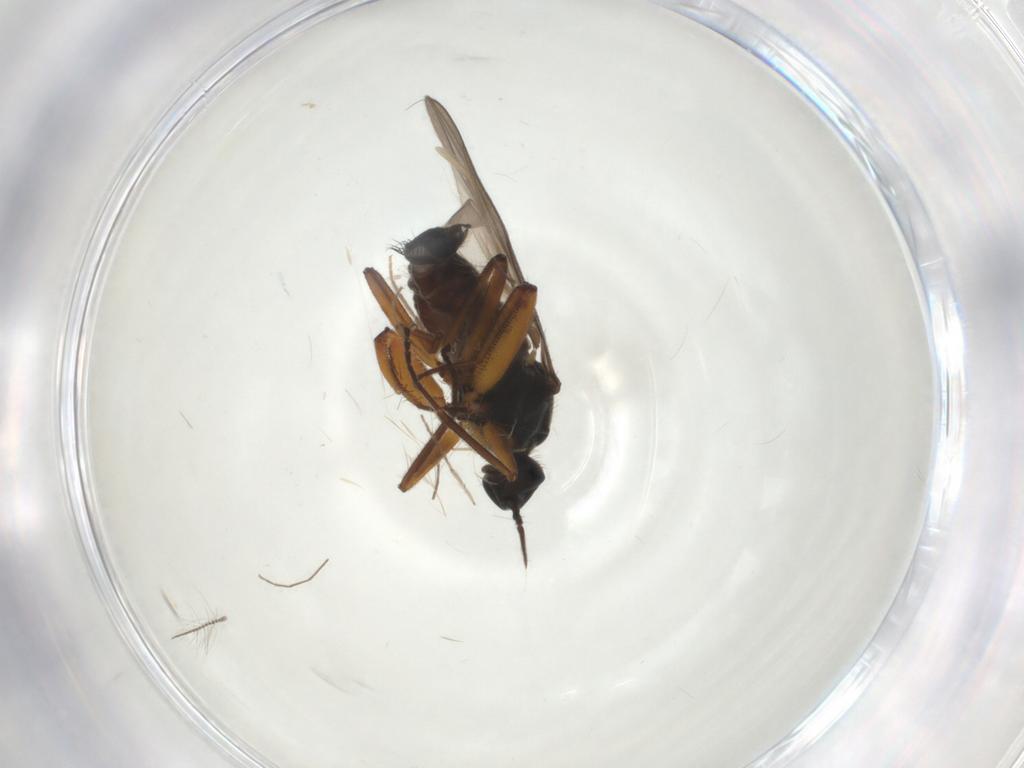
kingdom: Animalia
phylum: Arthropoda
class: Insecta
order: Diptera
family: Hybotidae
